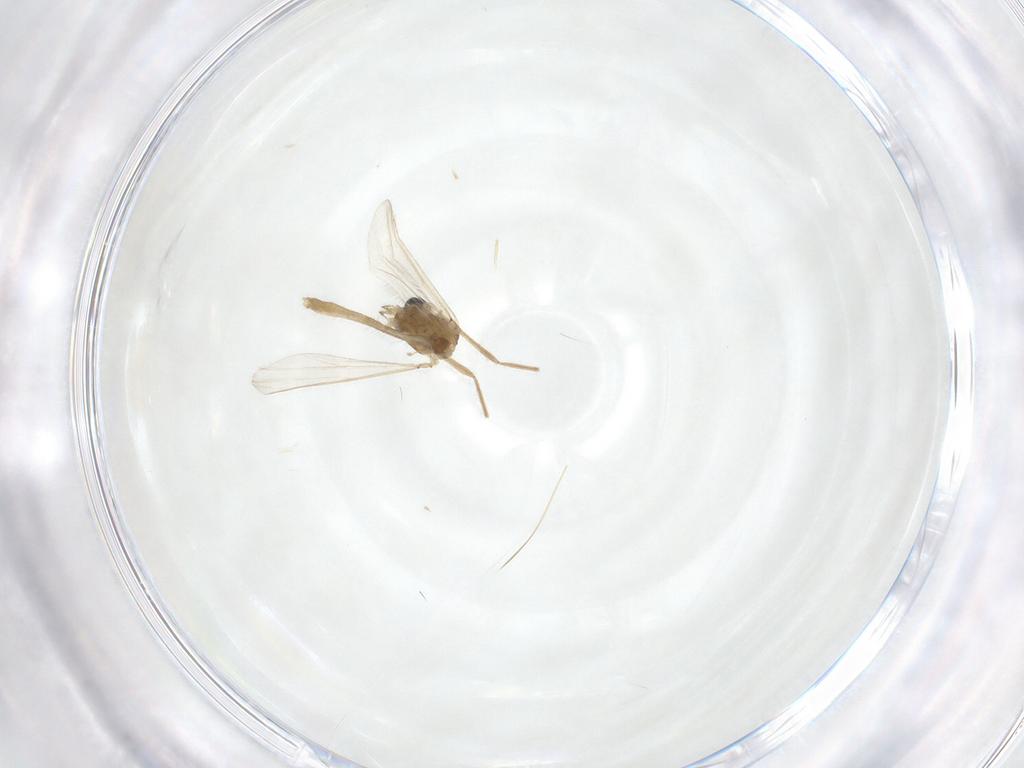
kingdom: Animalia
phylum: Arthropoda
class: Insecta
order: Diptera
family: Chironomidae
